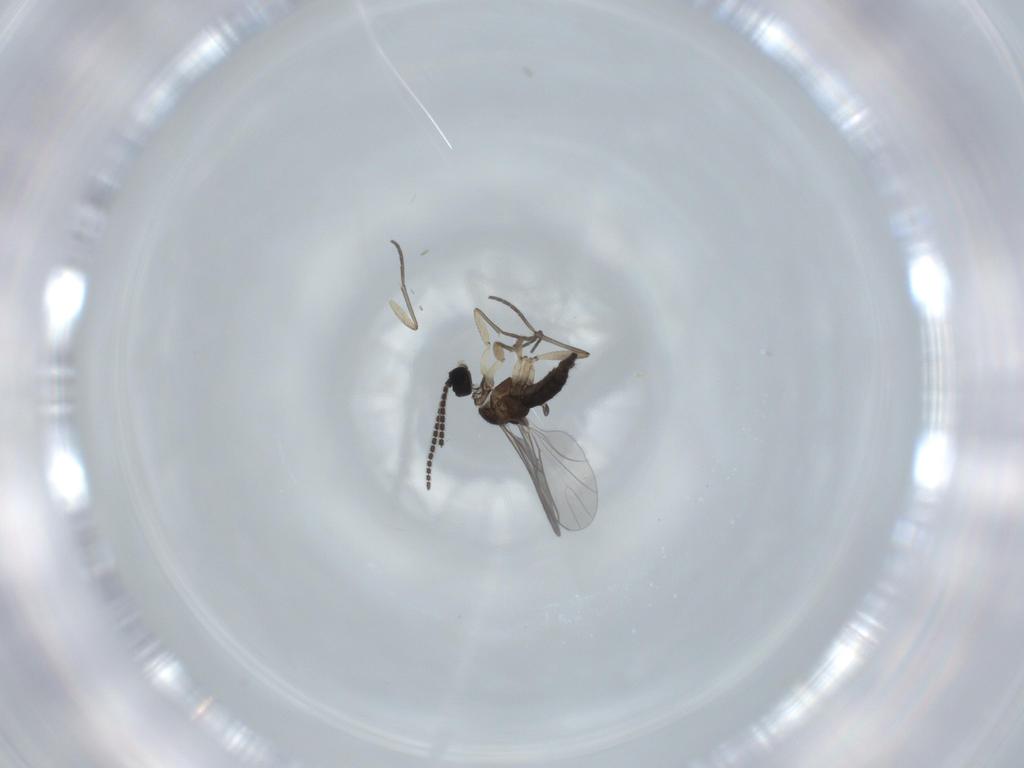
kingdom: Animalia
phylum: Arthropoda
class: Insecta
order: Diptera
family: Sciaridae
